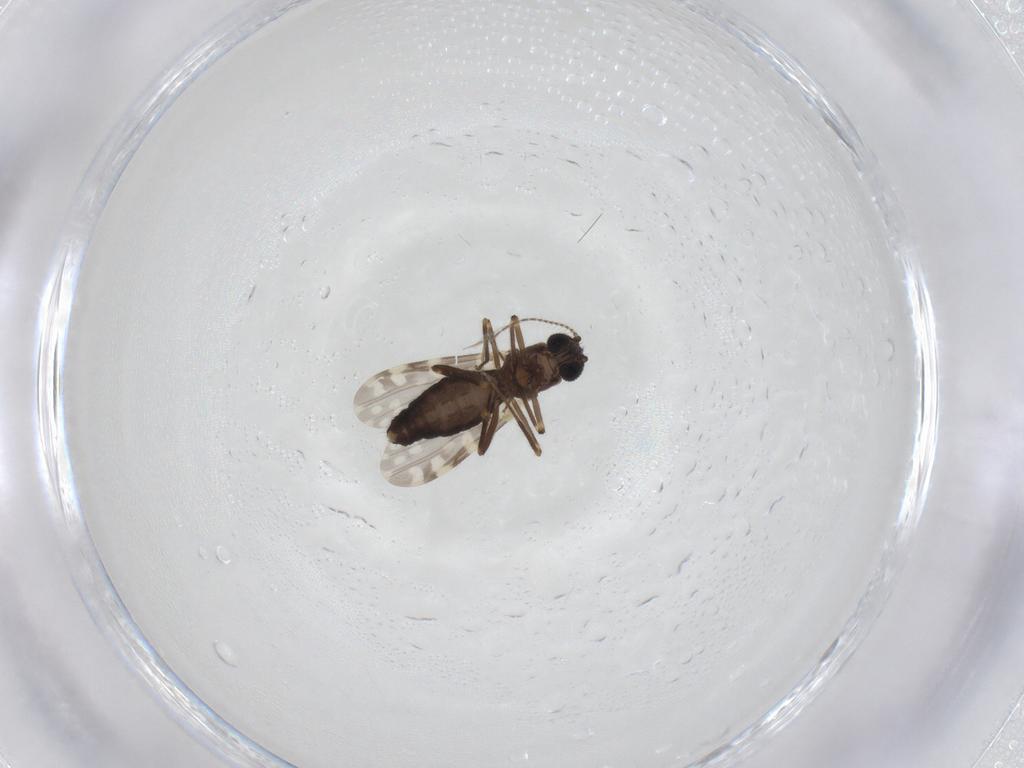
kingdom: Animalia
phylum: Arthropoda
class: Insecta
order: Diptera
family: Ceratopogonidae
